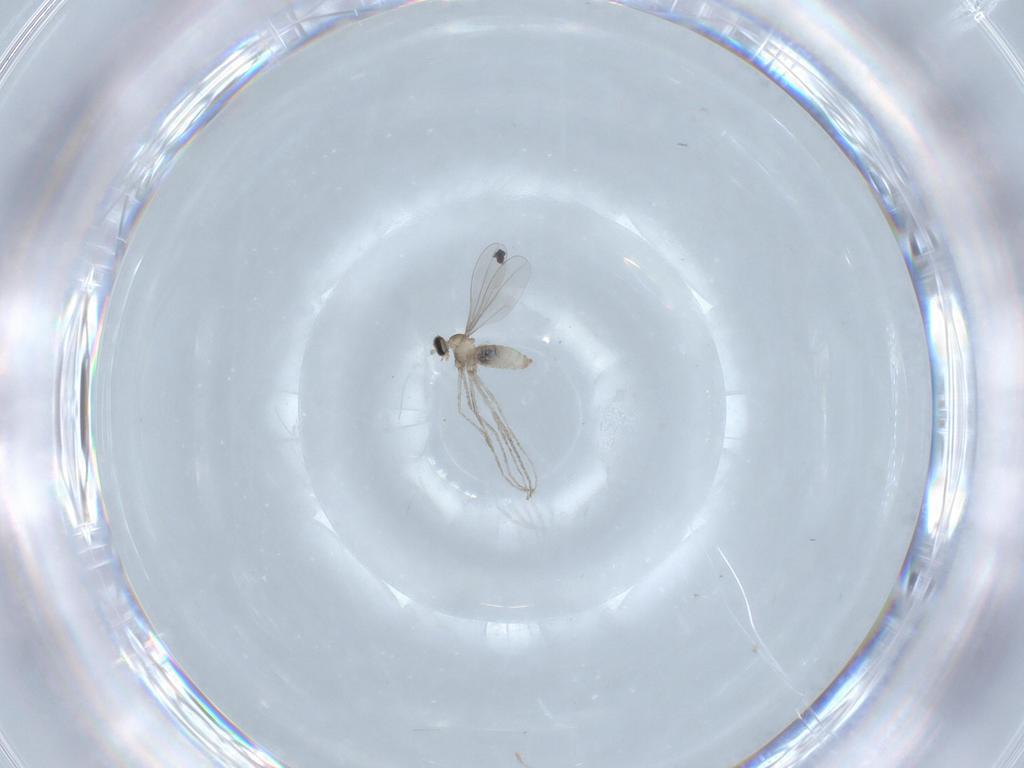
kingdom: Animalia
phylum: Arthropoda
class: Insecta
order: Diptera
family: Cecidomyiidae
